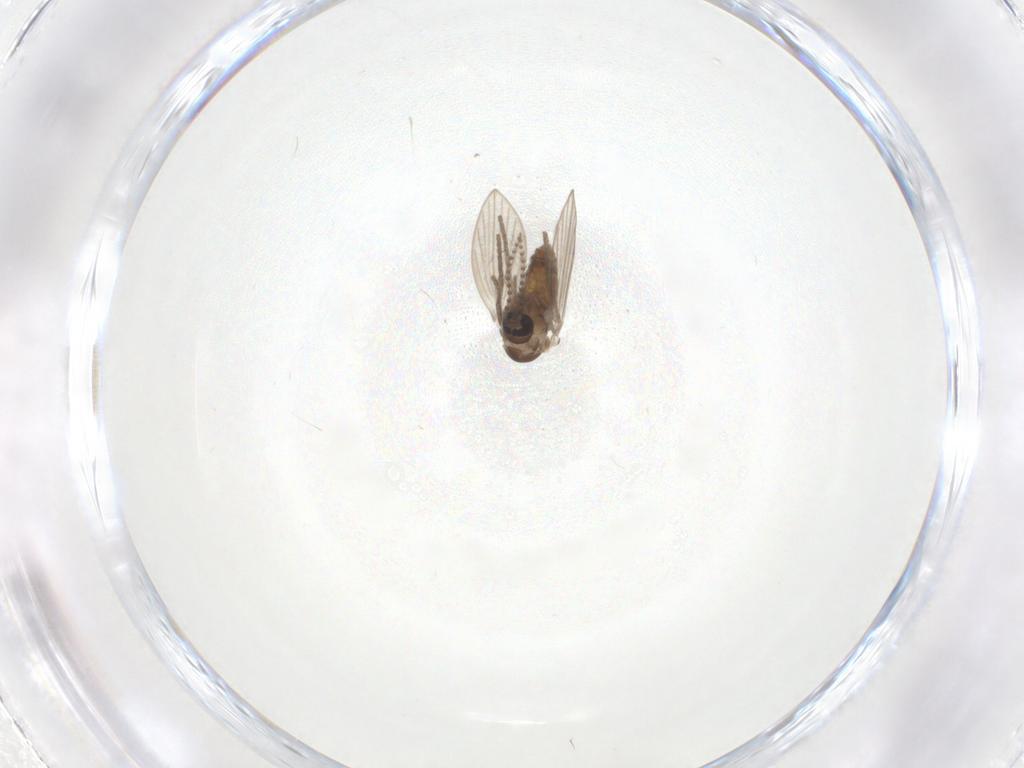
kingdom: Animalia
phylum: Arthropoda
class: Insecta
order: Diptera
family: Psychodidae
